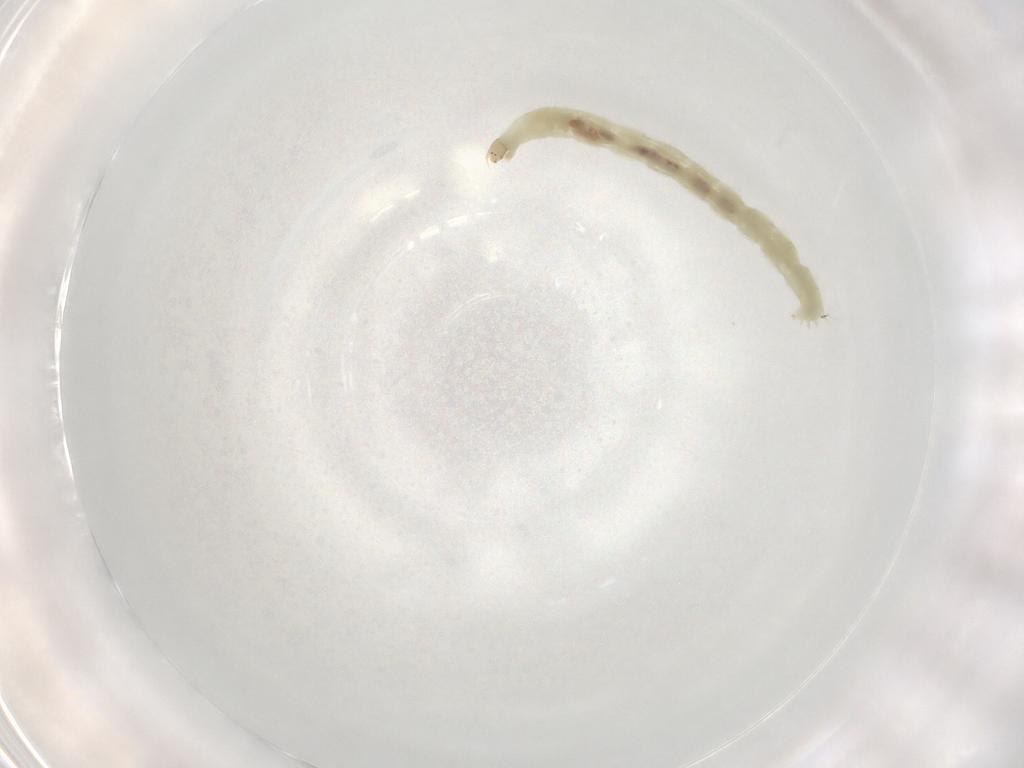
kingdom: Animalia
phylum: Arthropoda
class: Insecta
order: Diptera
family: Chironomidae
